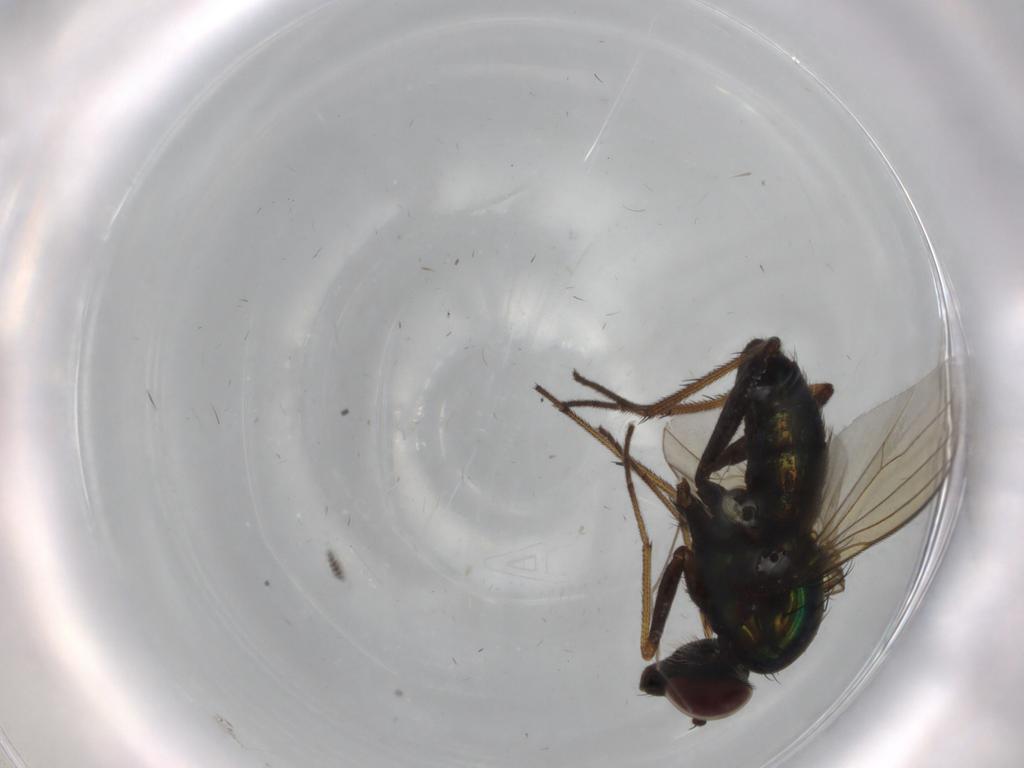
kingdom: Animalia
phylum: Arthropoda
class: Insecta
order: Diptera
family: Dolichopodidae
